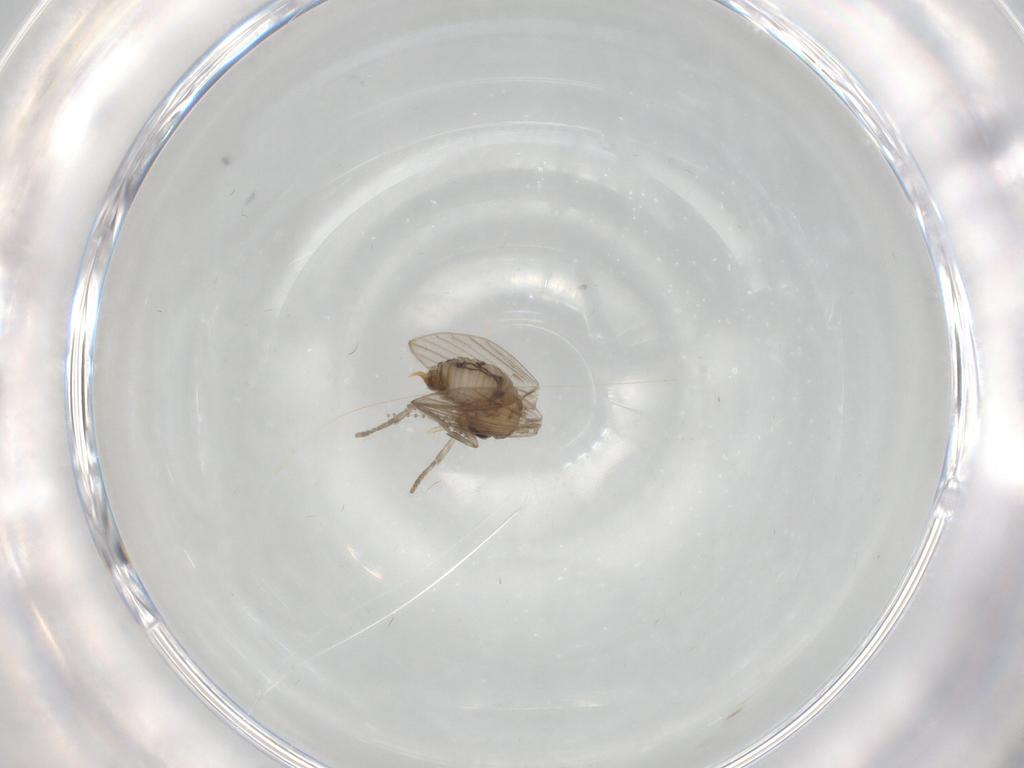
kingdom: Animalia
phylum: Arthropoda
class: Insecta
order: Diptera
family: Psychodidae
